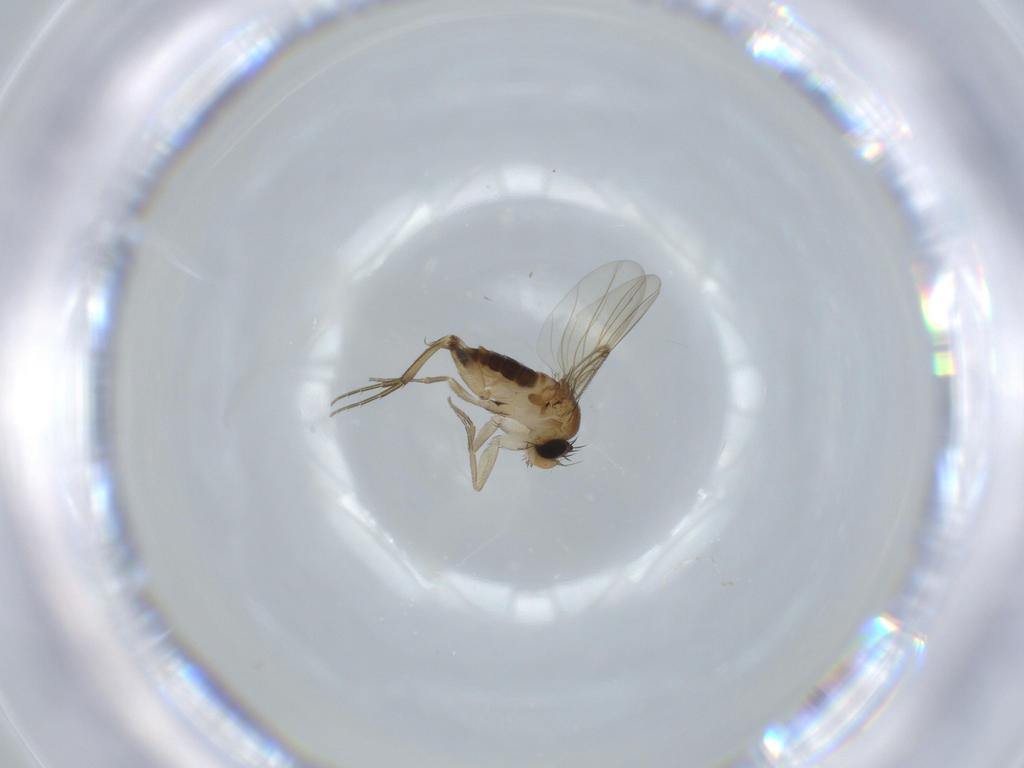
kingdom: Animalia
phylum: Arthropoda
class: Insecta
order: Diptera
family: Phoridae
